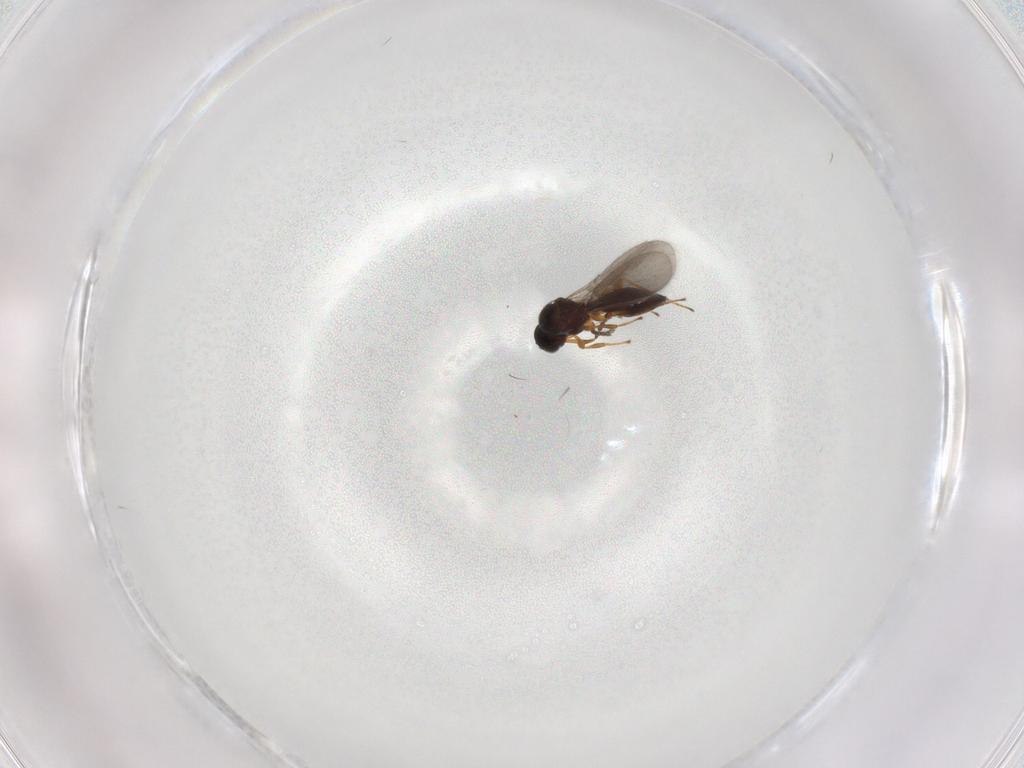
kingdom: Animalia
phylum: Arthropoda
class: Insecta
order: Hymenoptera
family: Platygastridae
